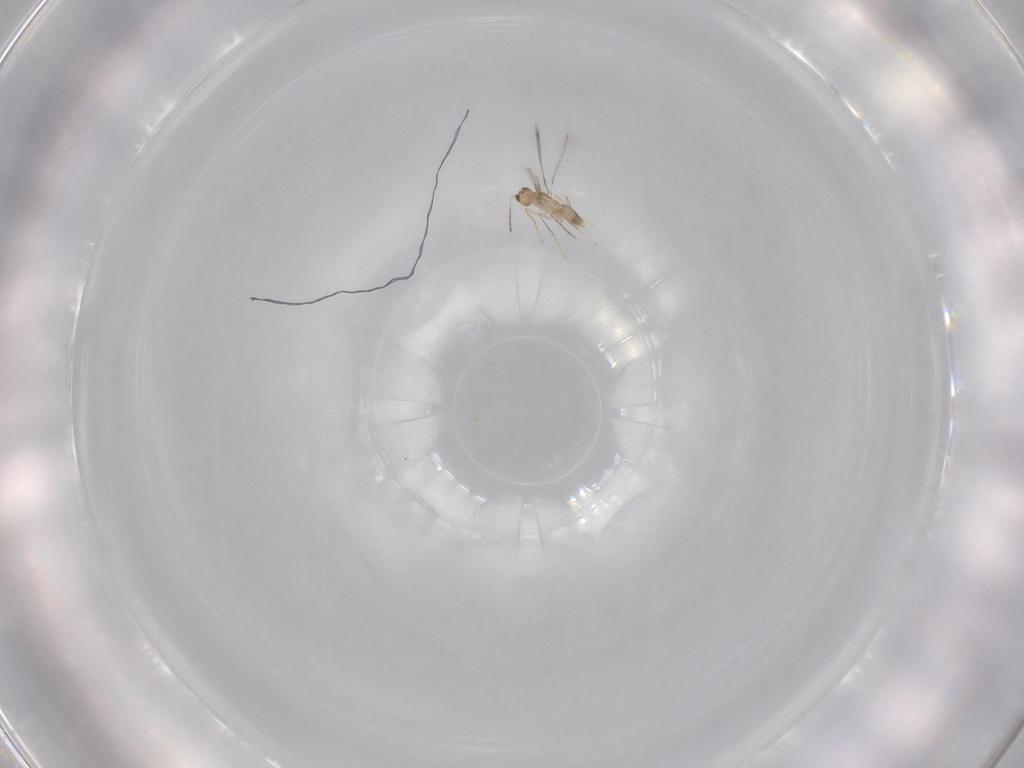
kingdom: Animalia
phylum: Arthropoda
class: Insecta
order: Hymenoptera
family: Mymaridae
